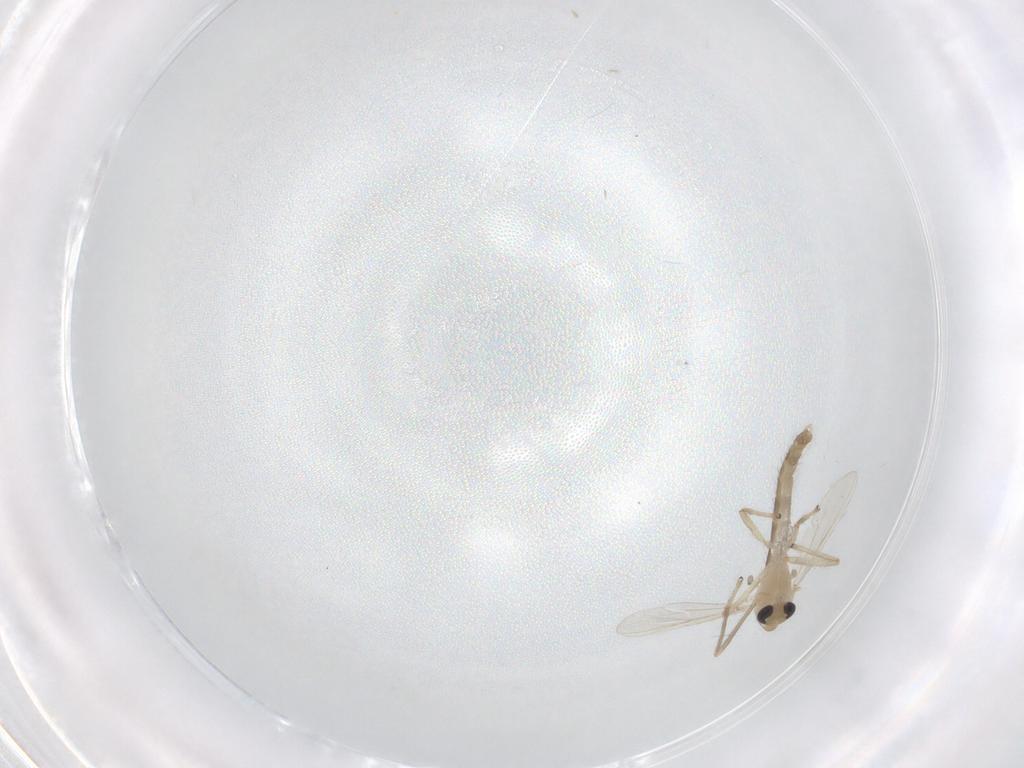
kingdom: Animalia
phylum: Arthropoda
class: Insecta
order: Diptera
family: Chironomidae
